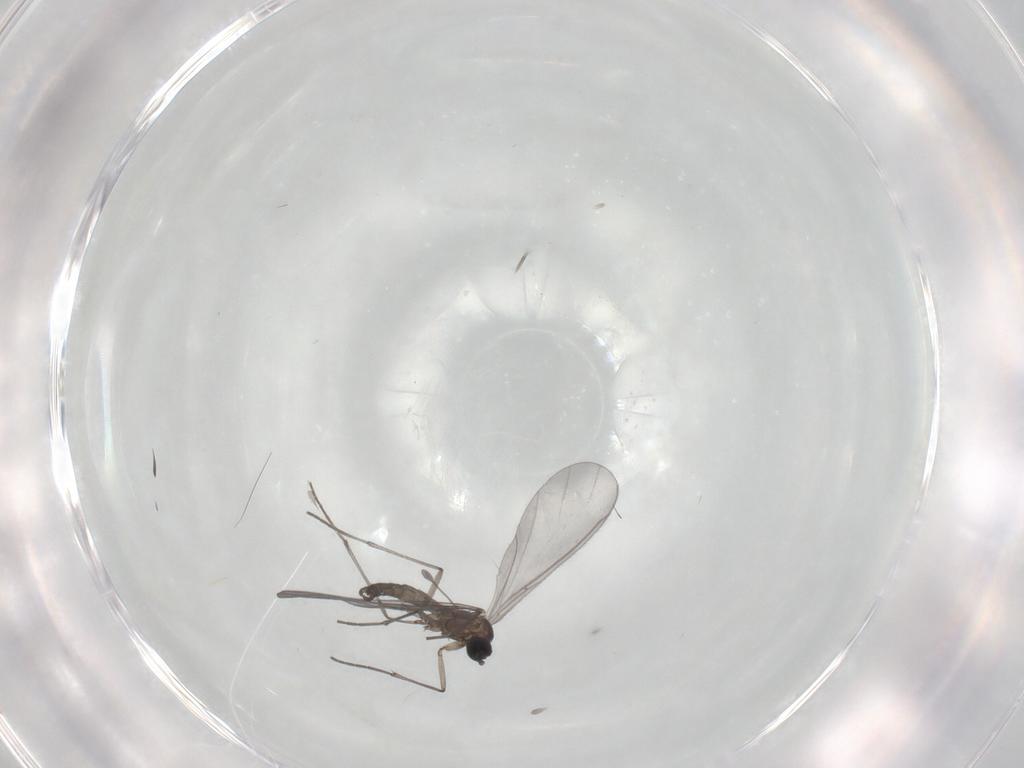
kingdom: Animalia
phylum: Arthropoda
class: Insecta
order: Diptera
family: Sciaridae
